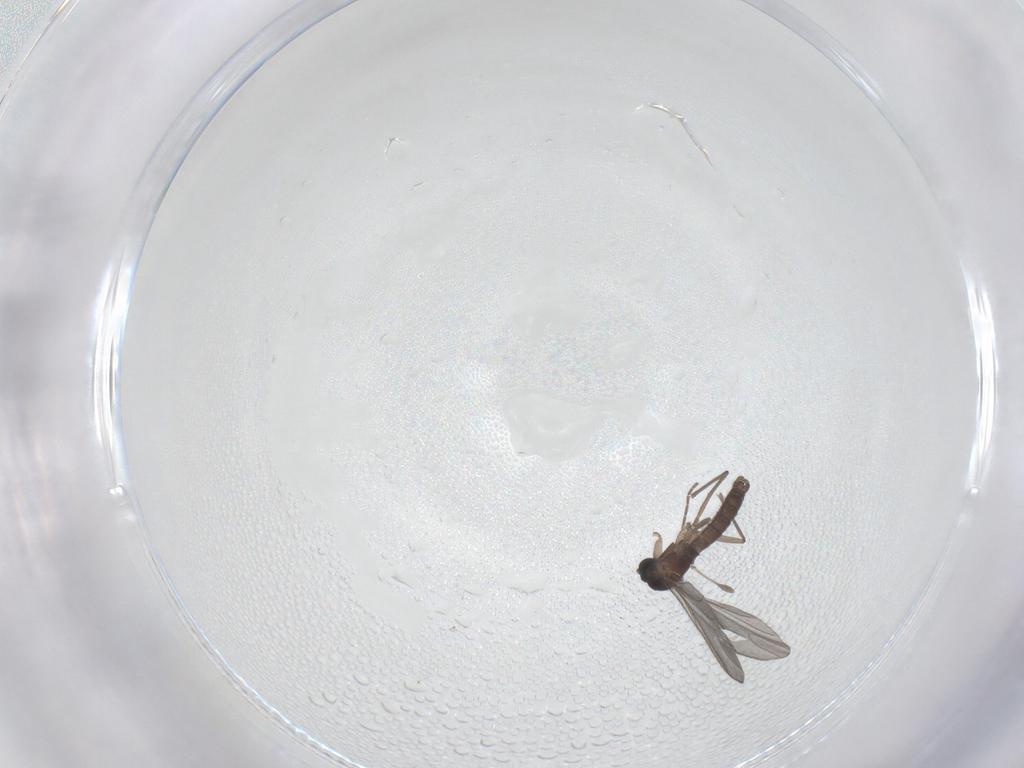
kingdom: Animalia
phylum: Arthropoda
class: Insecta
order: Diptera
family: Sciaridae
